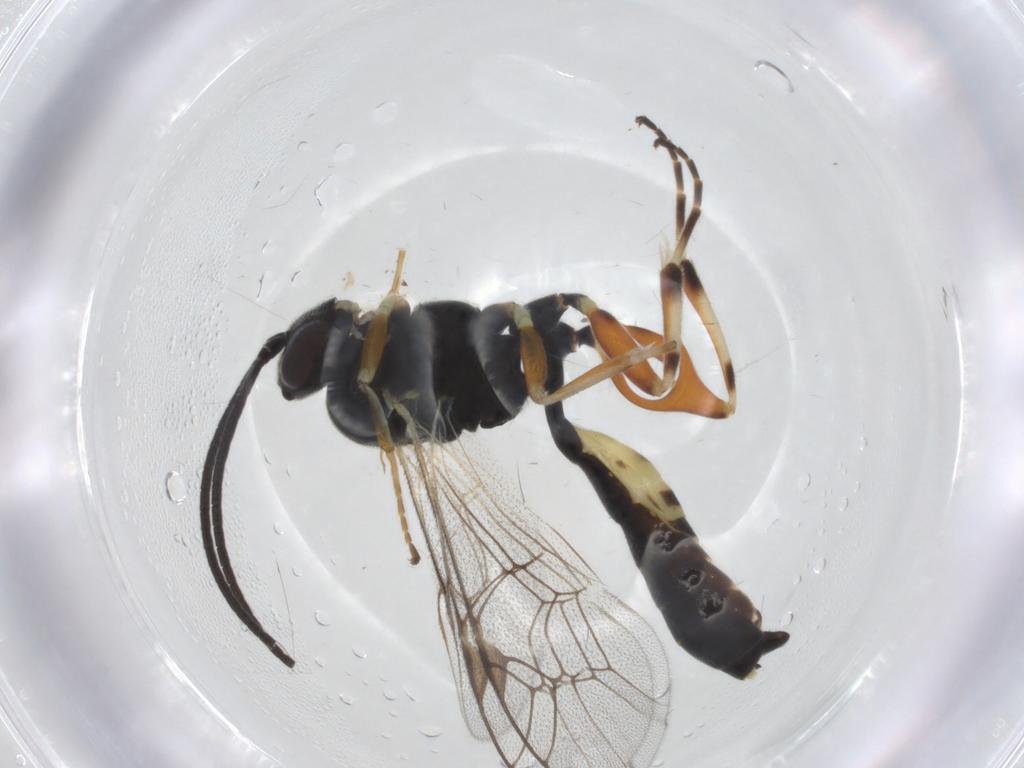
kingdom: Animalia
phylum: Arthropoda
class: Insecta
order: Hymenoptera
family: Ichneumonidae
